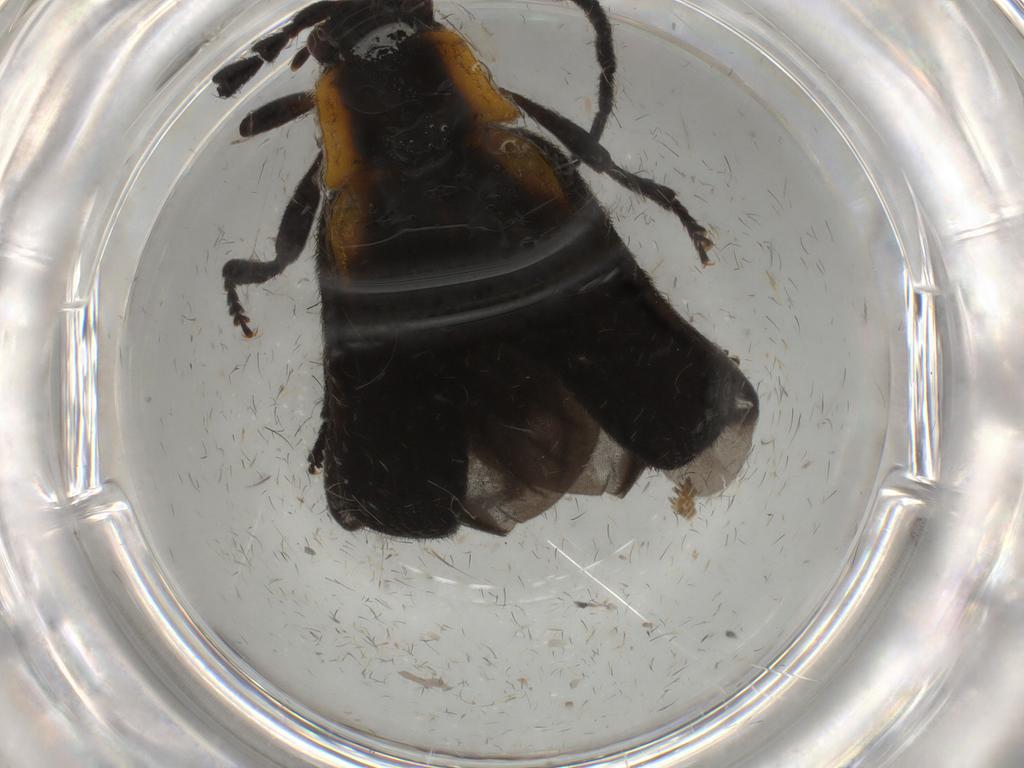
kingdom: Animalia
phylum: Arthropoda
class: Insecta
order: Coleoptera
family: Lycidae
